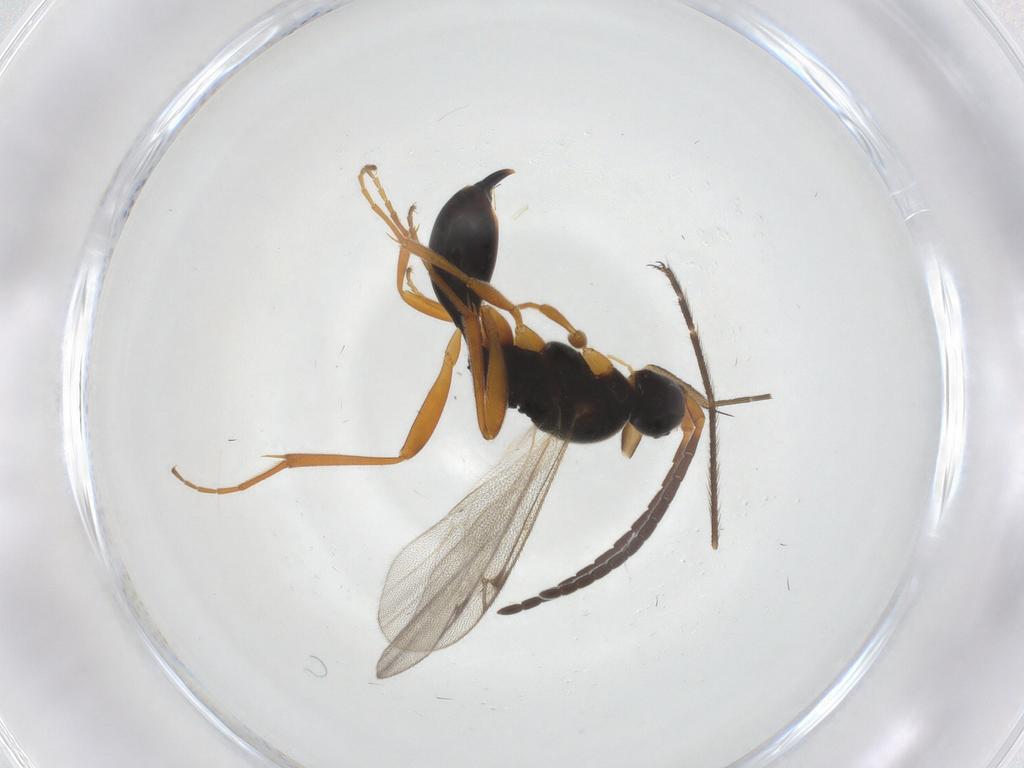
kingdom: Animalia
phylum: Arthropoda
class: Insecta
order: Hymenoptera
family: Proctotrupidae
